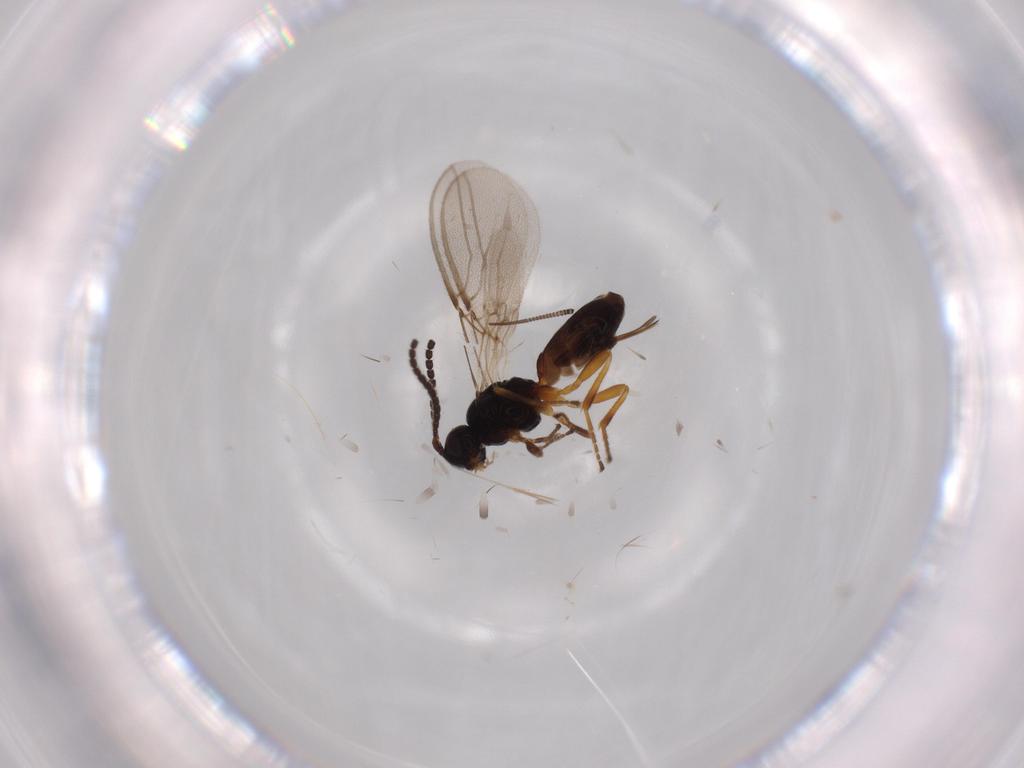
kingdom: Animalia
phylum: Arthropoda
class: Insecta
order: Hymenoptera
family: Braconidae
